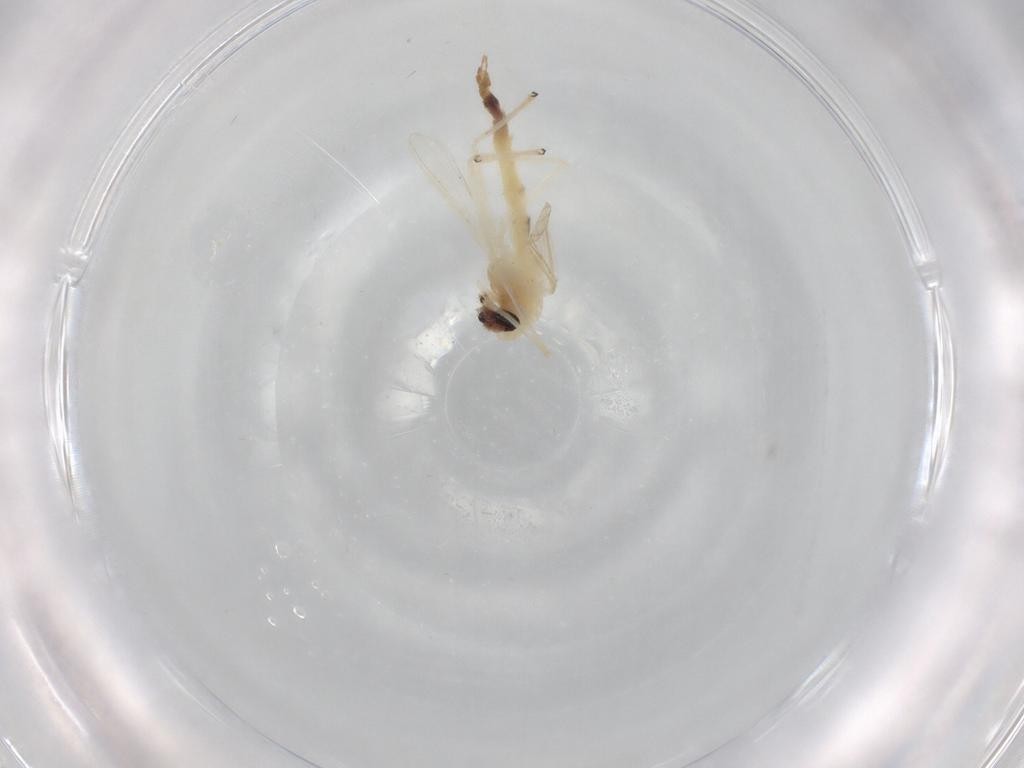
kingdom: Animalia
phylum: Arthropoda
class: Insecta
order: Diptera
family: Chironomidae
